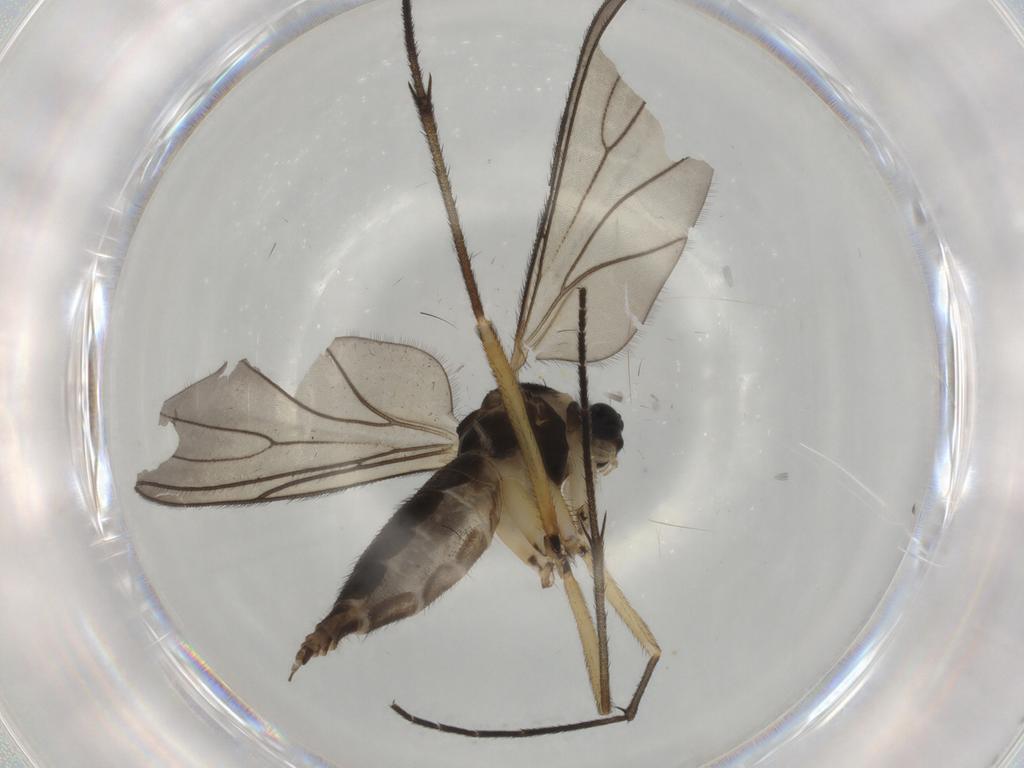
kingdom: Animalia
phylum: Arthropoda
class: Insecta
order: Diptera
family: Sciaridae
